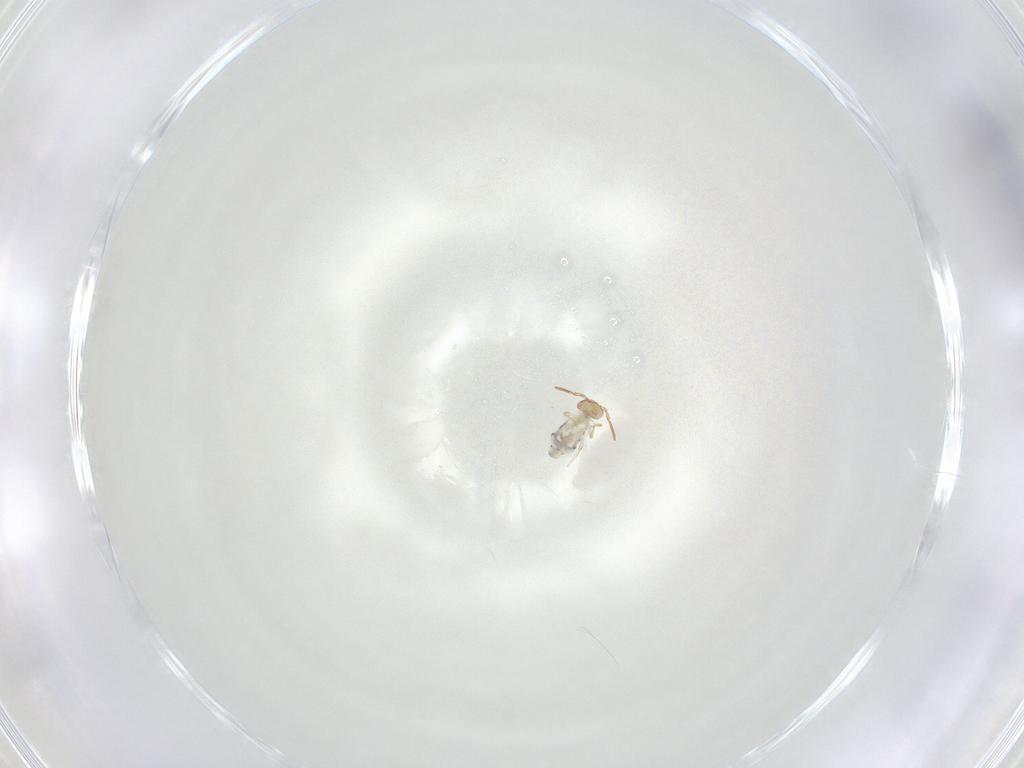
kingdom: Animalia
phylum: Arthropoda
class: Collembola
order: Symphypleona
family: Bourletiellidae
